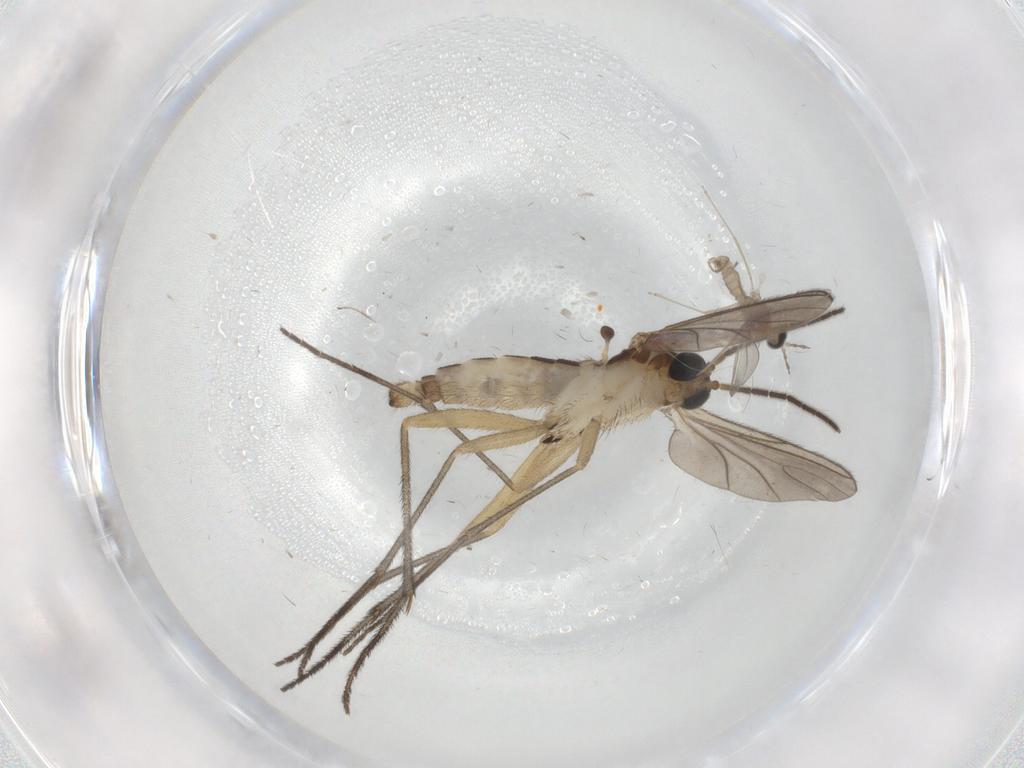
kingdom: Animalia
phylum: Arthropoda
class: Insecta
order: Diptera
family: Cecidomyiidae
